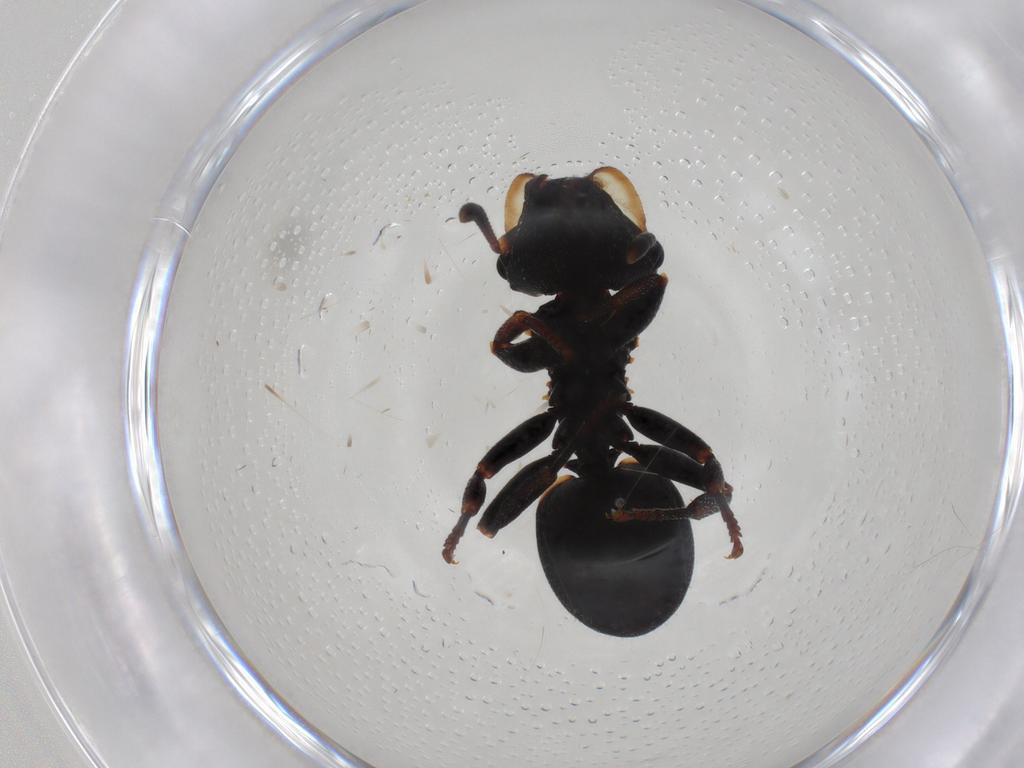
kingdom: Animalia
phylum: Arthropoda
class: Insecta
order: Hymenoptera
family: Formicidae
